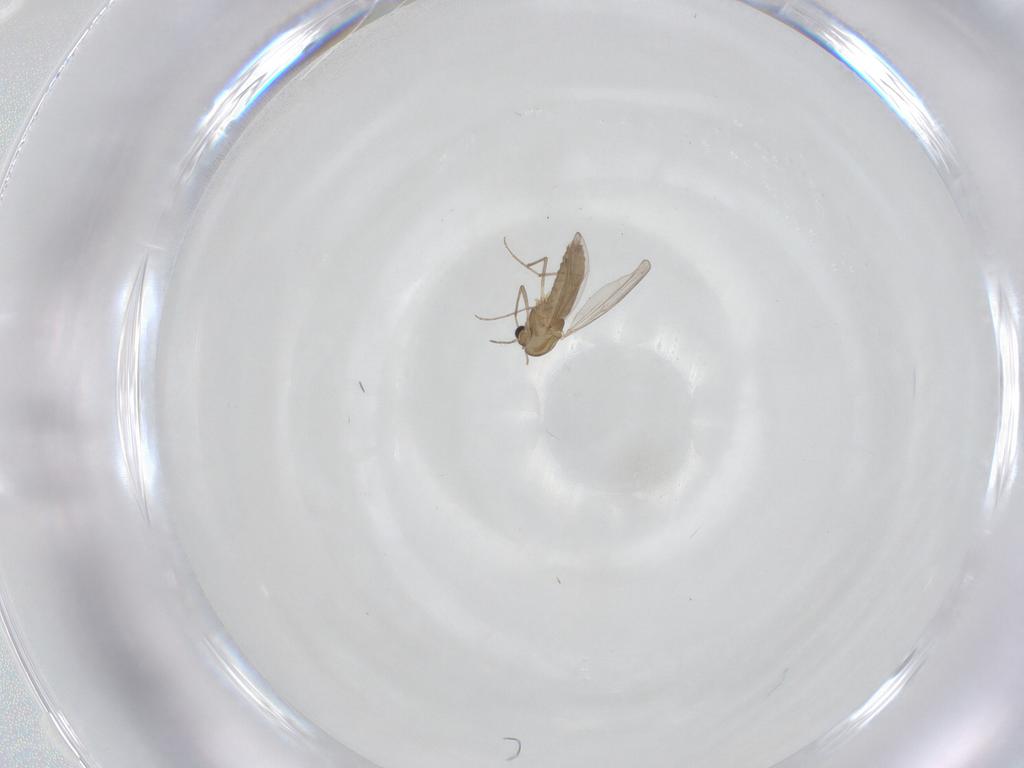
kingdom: Animalia
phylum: Arthropoda
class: Insecta
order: Diptera
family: Chironomidae
